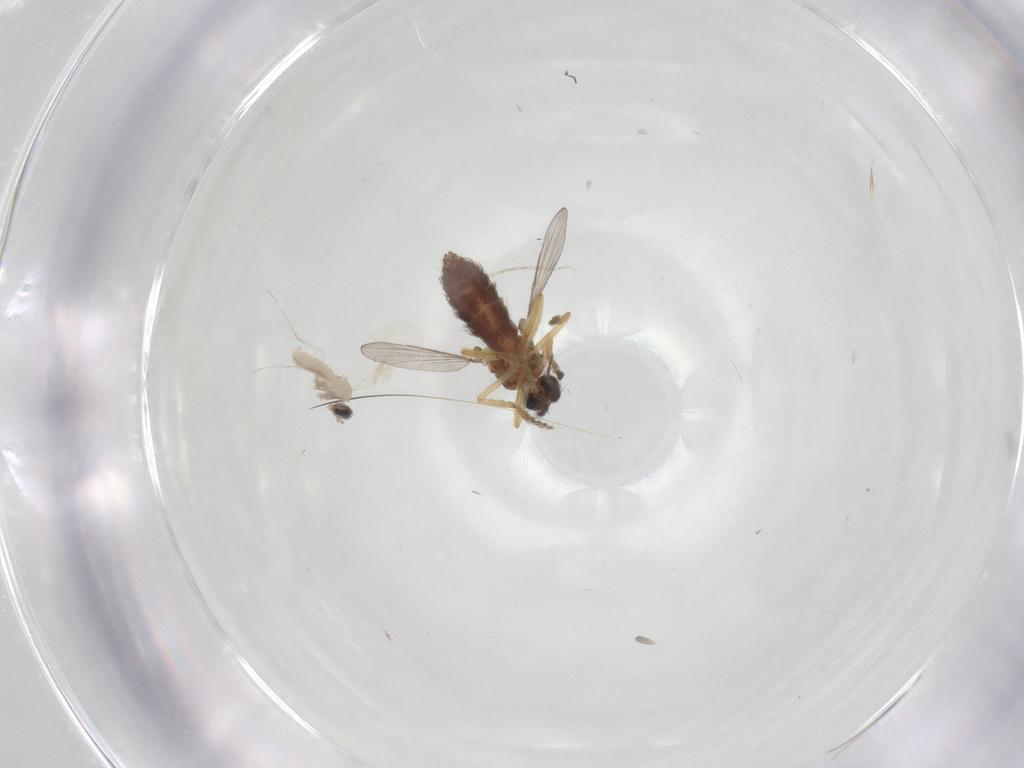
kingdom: Animalia
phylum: Arthropoda
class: Insecta
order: Diptera
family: Ceratopogonidae
